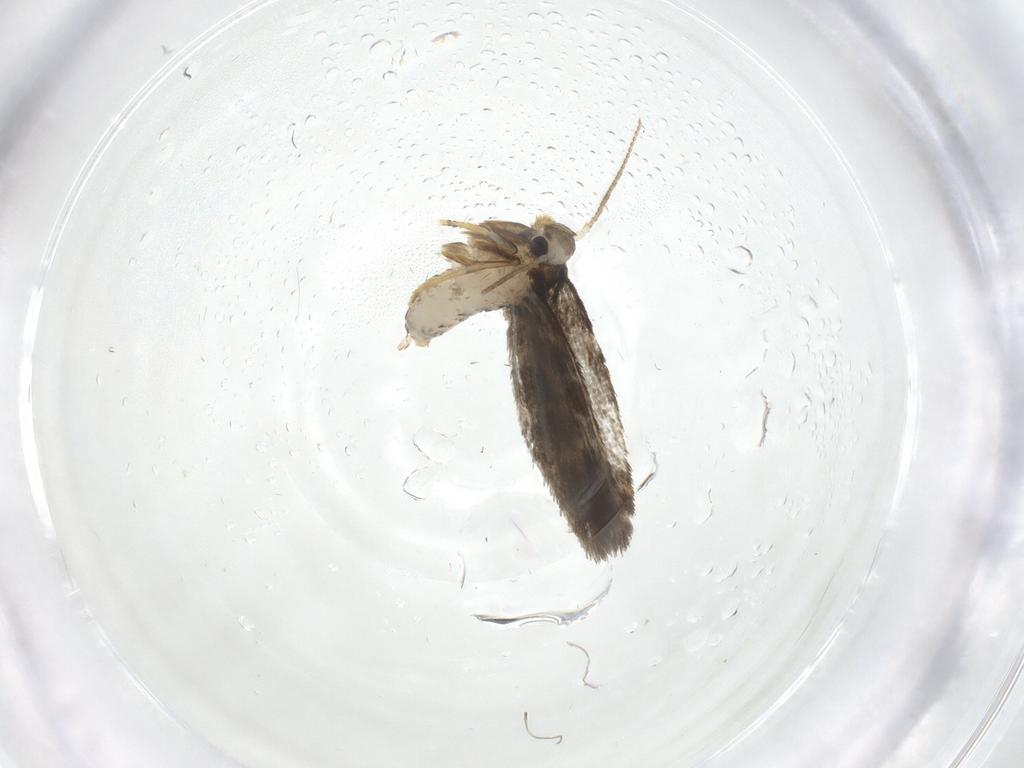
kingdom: Animalia
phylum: Arthropoda
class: Insecta
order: Lepidoptera
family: Psychidae
